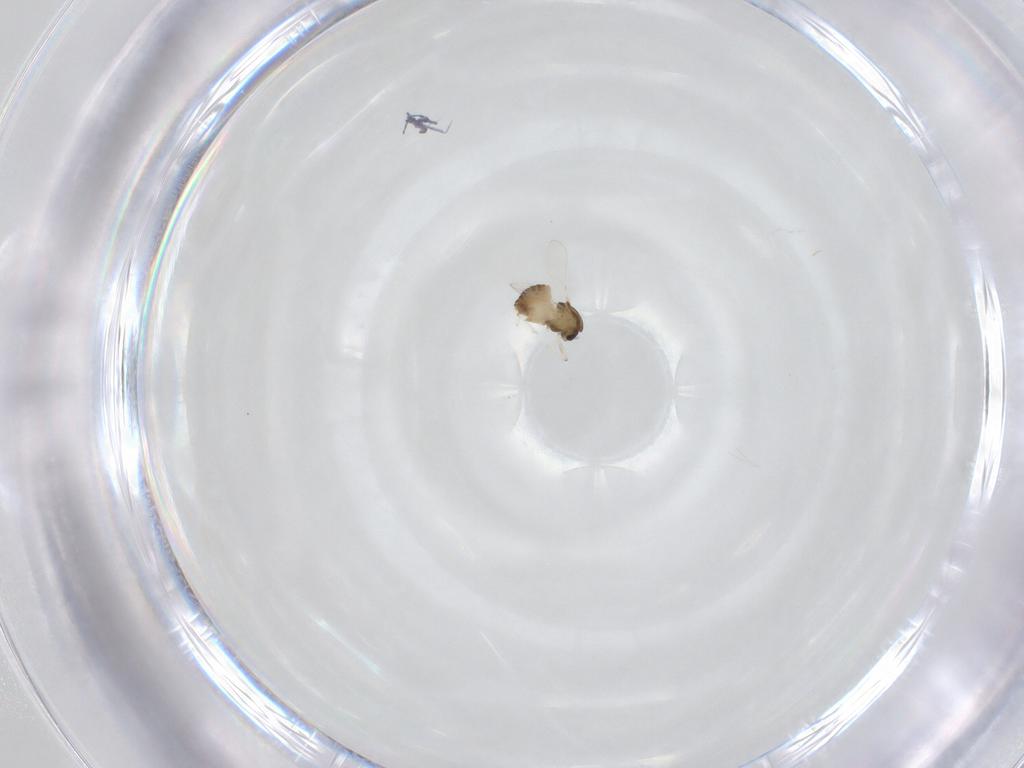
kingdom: Animalia
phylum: Arthropoda
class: Insecta
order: Diptera
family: Chironomidae
